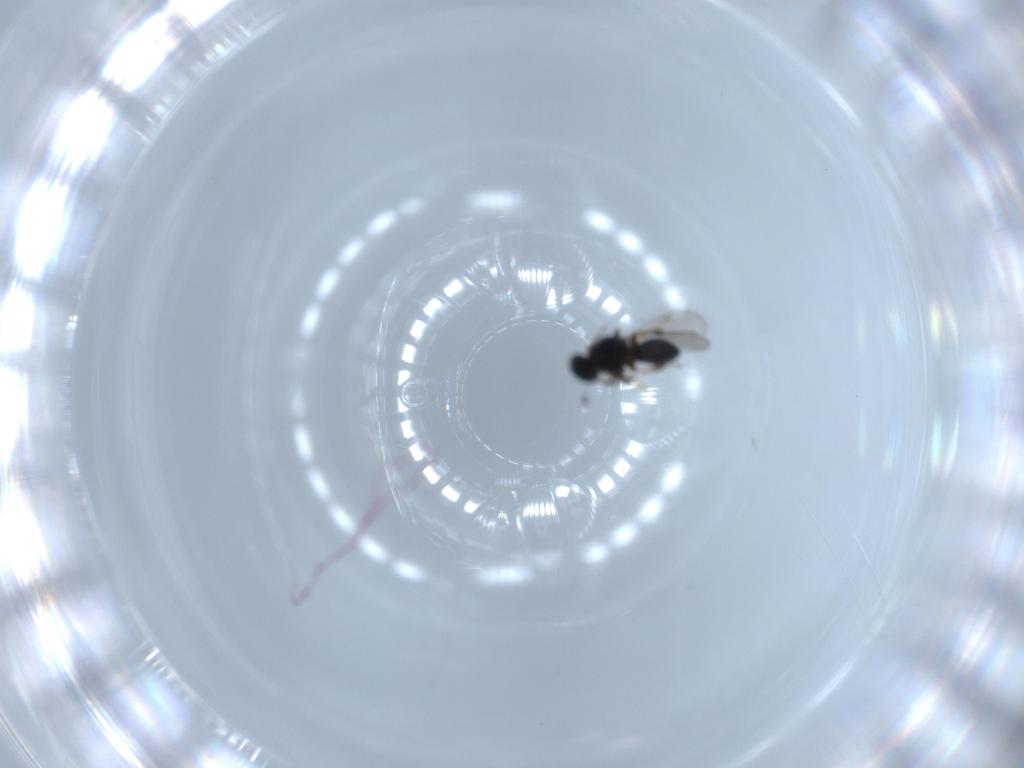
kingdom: Animalia
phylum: Arthropoda
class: Insecta
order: Hymenoptera
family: Platygastridae
